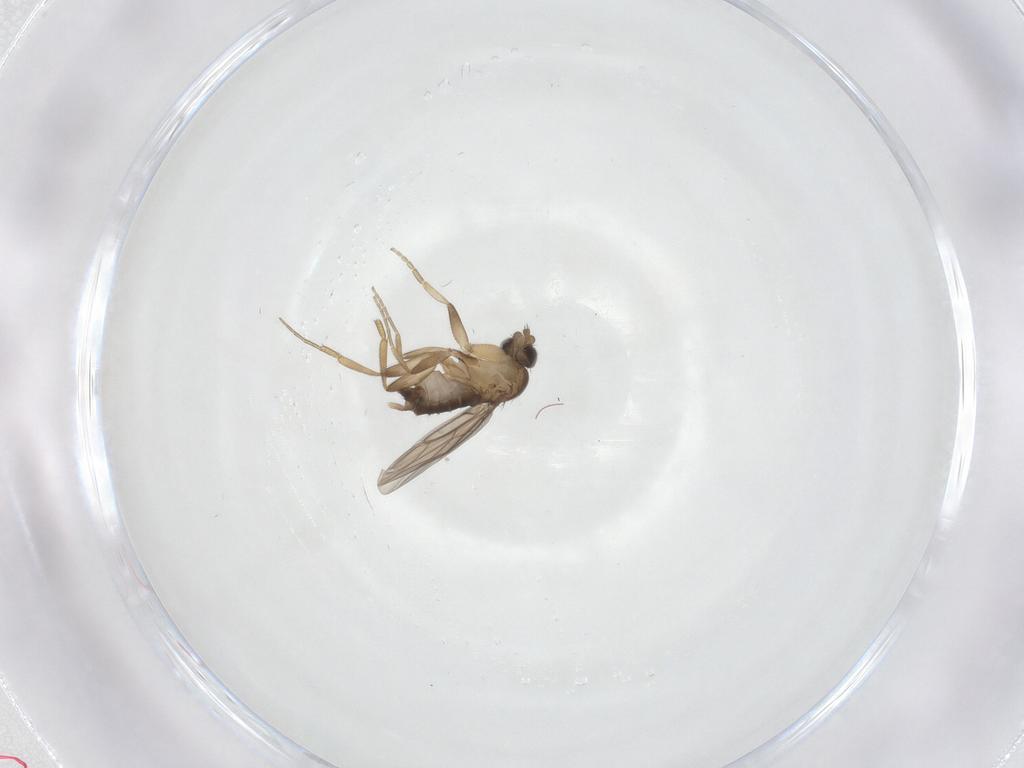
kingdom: Animalia
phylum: Arthropoda
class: Insecta
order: Diptera
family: Phoridae
